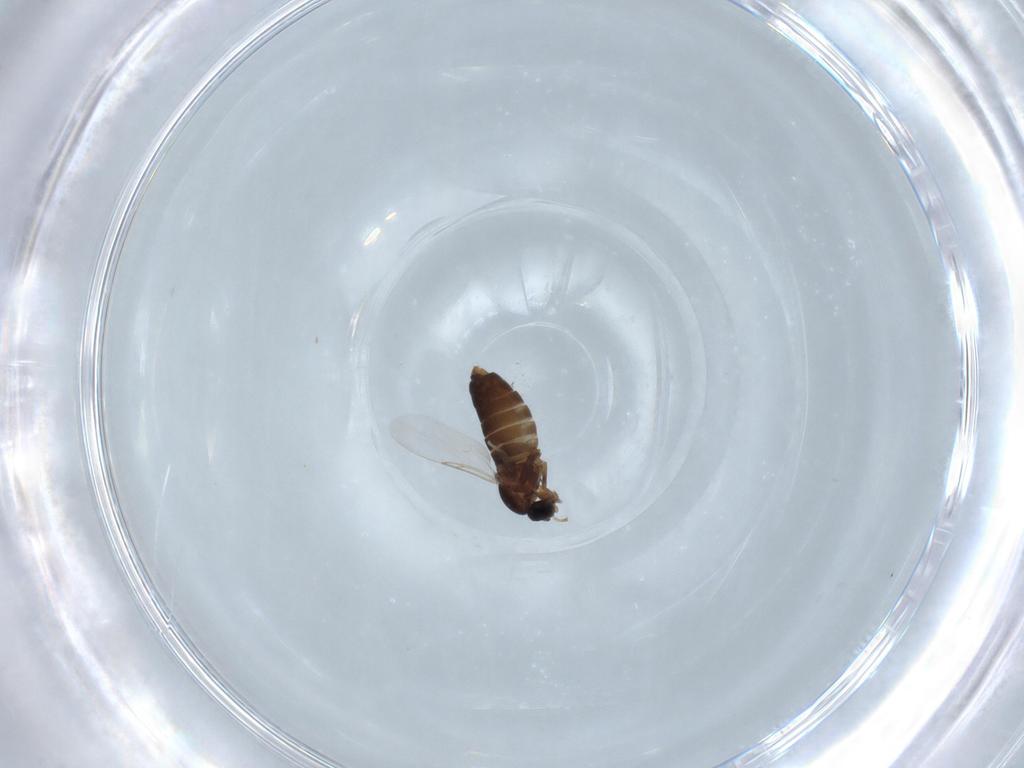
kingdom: Animalia
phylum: Arthropoda
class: Insecta
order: Diptera
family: Scatopsidae
